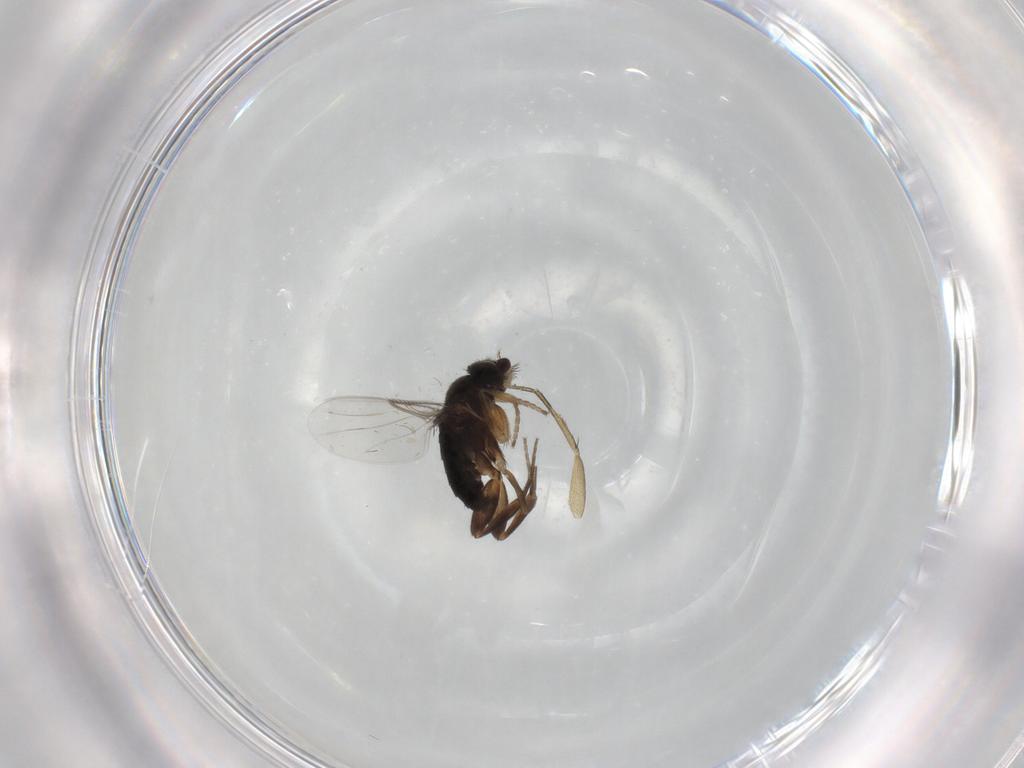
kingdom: Animalia
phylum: Arthropoda
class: Insecta
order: Diptera
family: Phoridae
